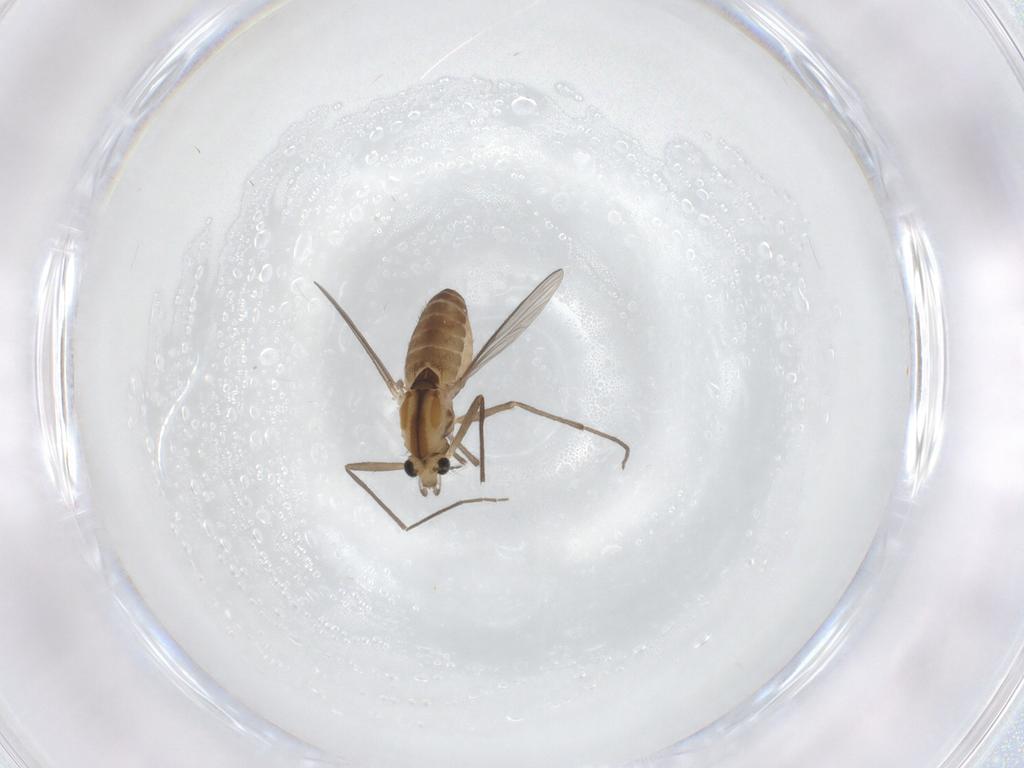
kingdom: Animalia
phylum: Arthropoda
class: Insecta
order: Diptera
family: Chironomidae
